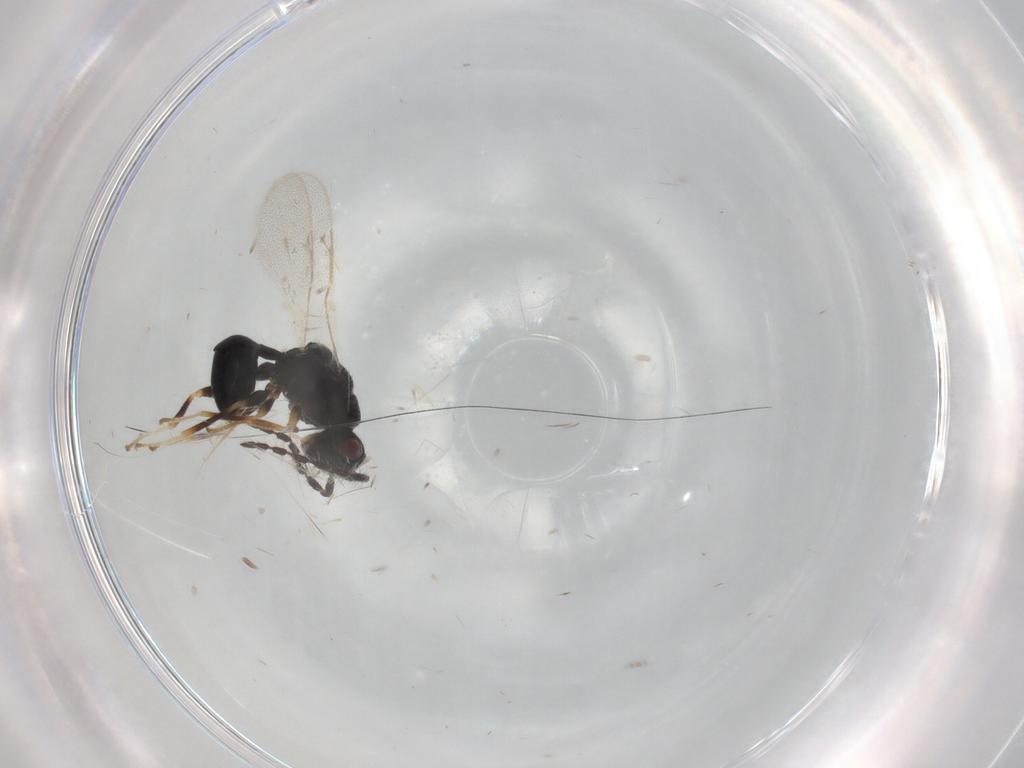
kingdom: Animalia
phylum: Arthropoda
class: Insecta
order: Hymenoptera
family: Eurytomidae
